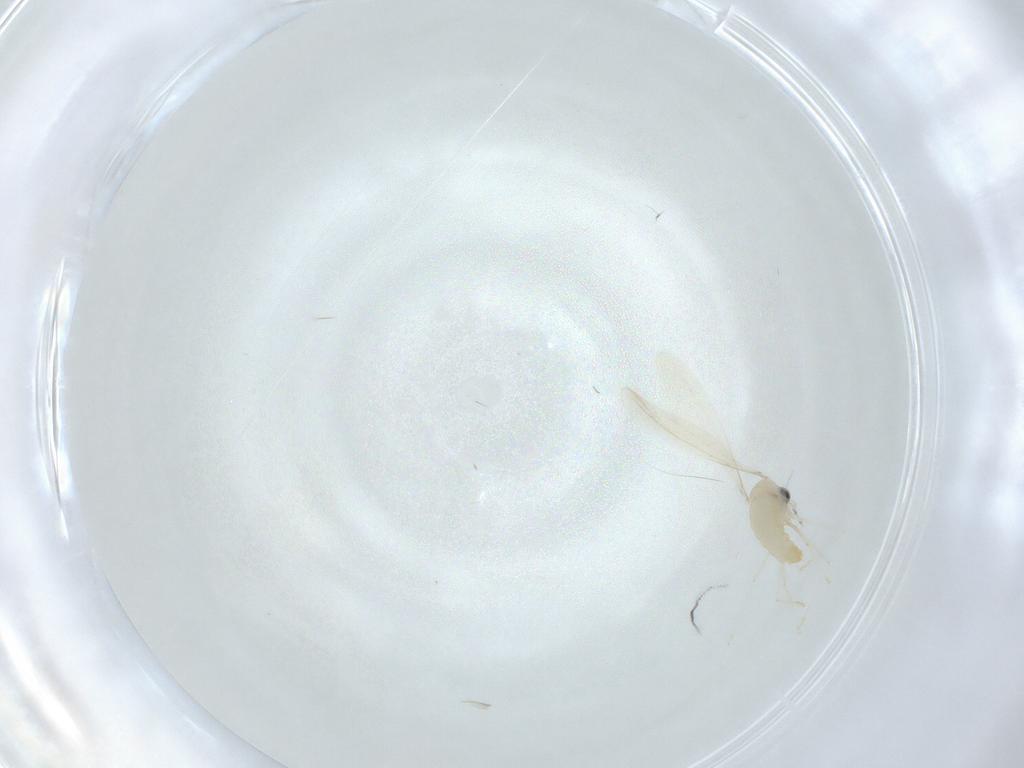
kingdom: Animalia
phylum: Arthropoda
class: Insecta
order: Diptera
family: Cecidomyiidae
